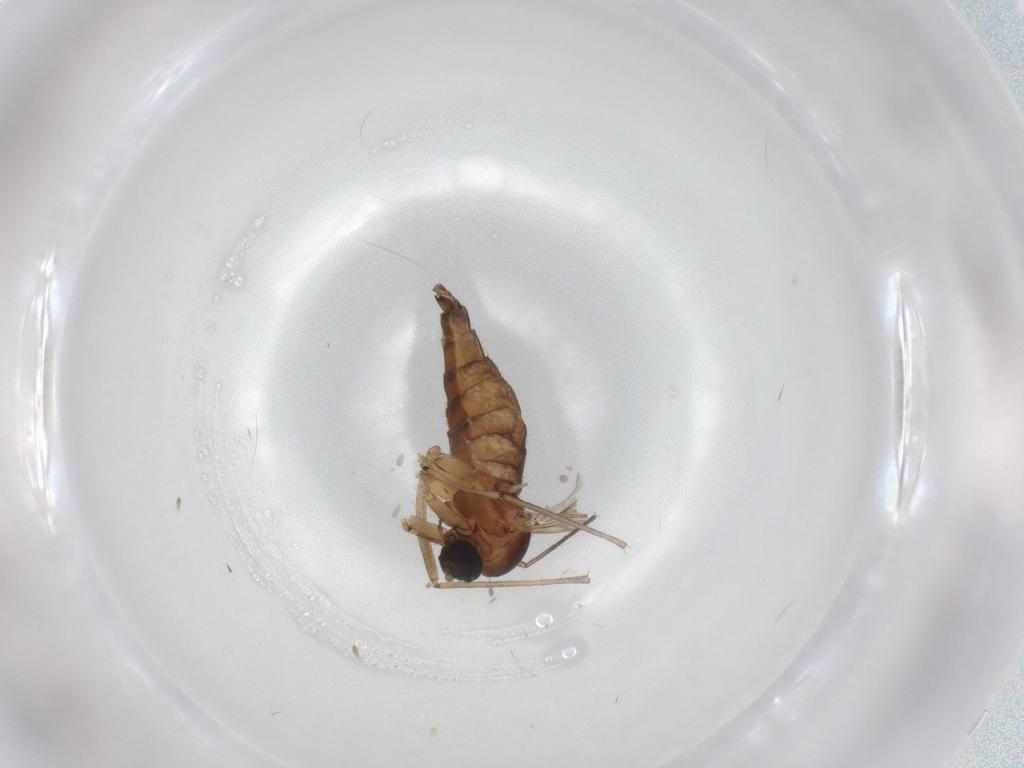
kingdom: Animalia
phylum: Arthropoda
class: Insecta
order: Diptera
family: Sciaridae
